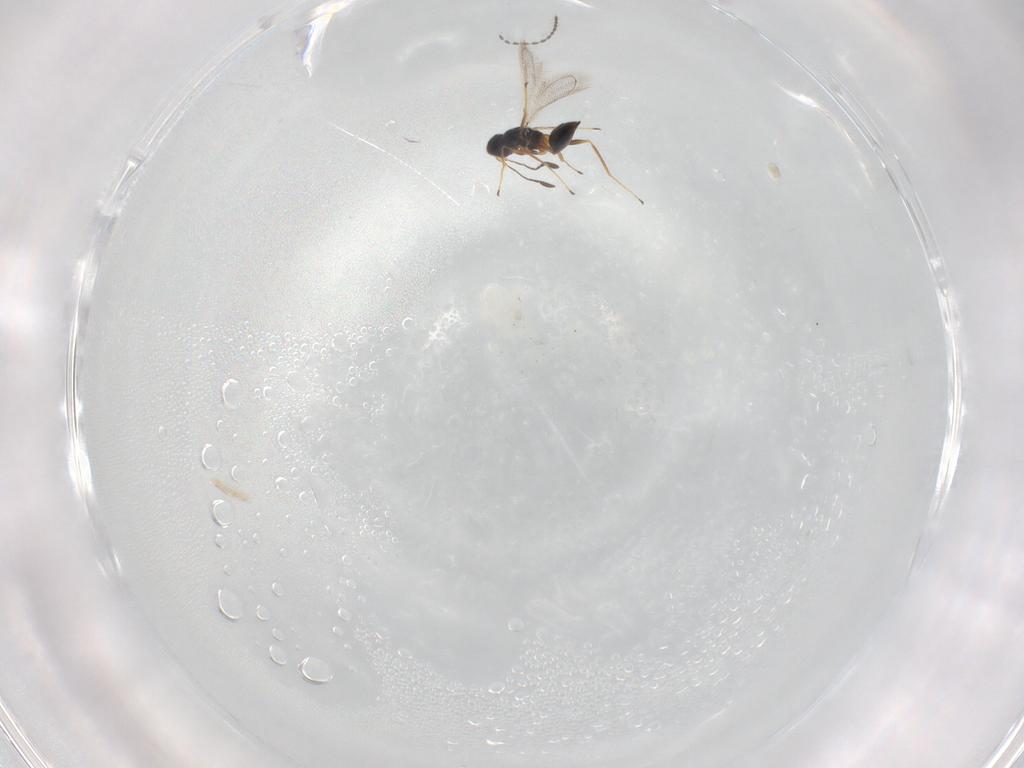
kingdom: Animalia
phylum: Arthropoda
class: Insecta
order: Hymenoptera
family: Mymaridae
